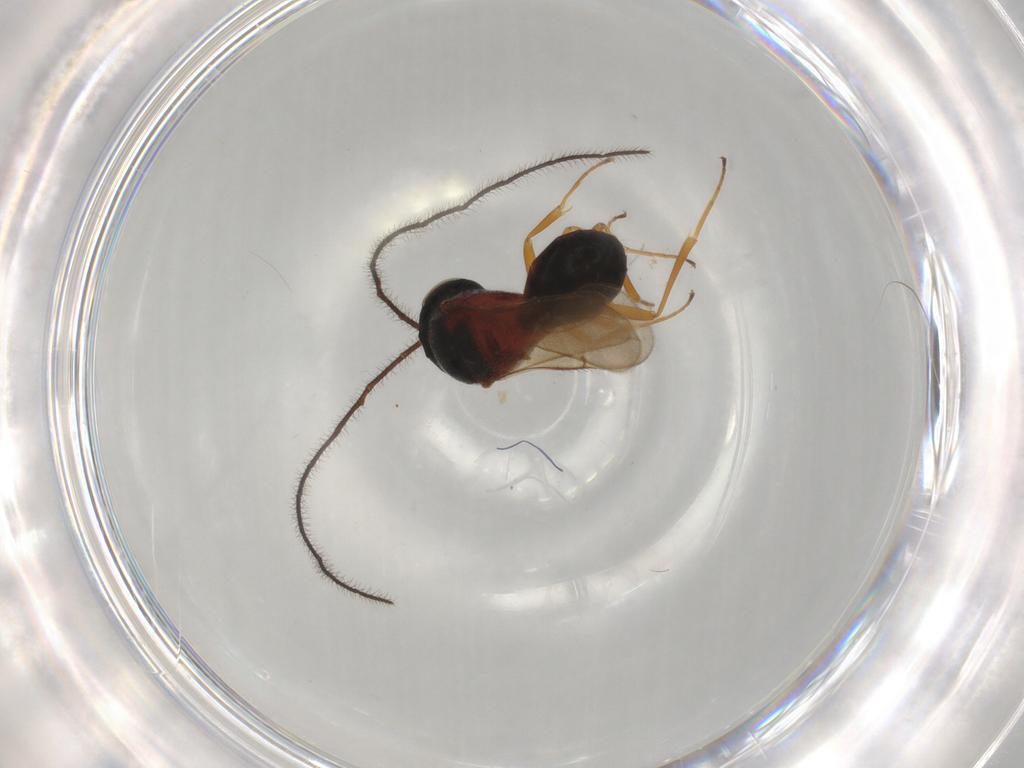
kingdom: Animalia
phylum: Arthropoda
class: Insecta
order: Hymenoptera
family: Scelionidae
